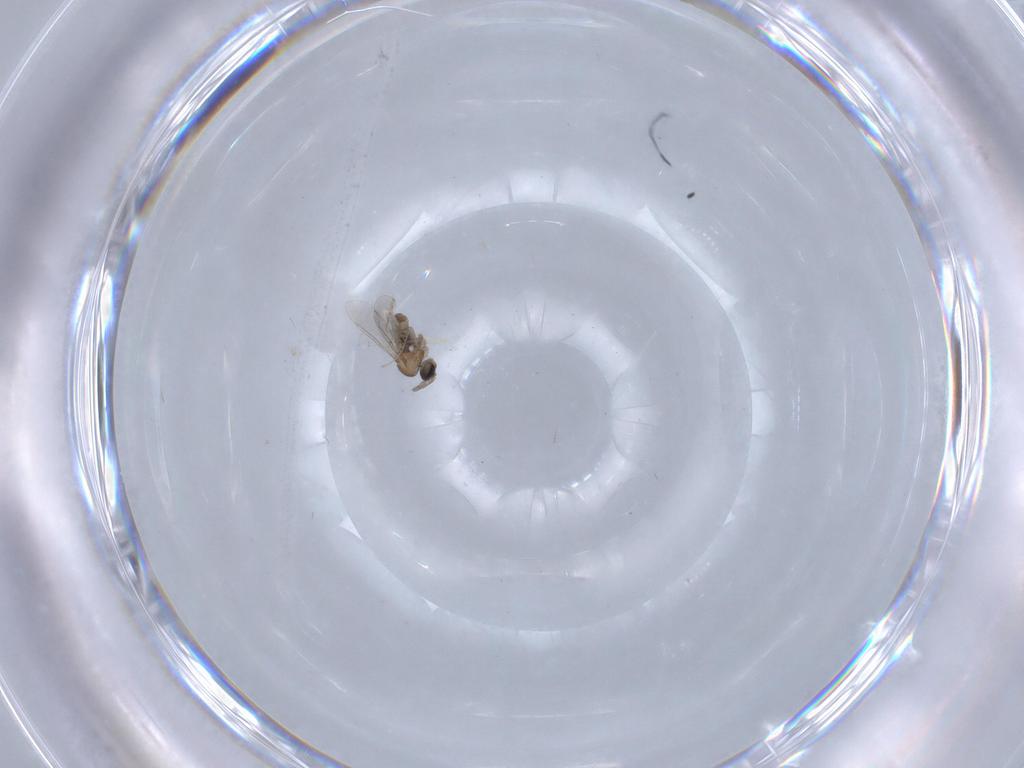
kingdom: Animalia
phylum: Arthropoda
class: Insecta
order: Diptera
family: Cecidomyiidae
